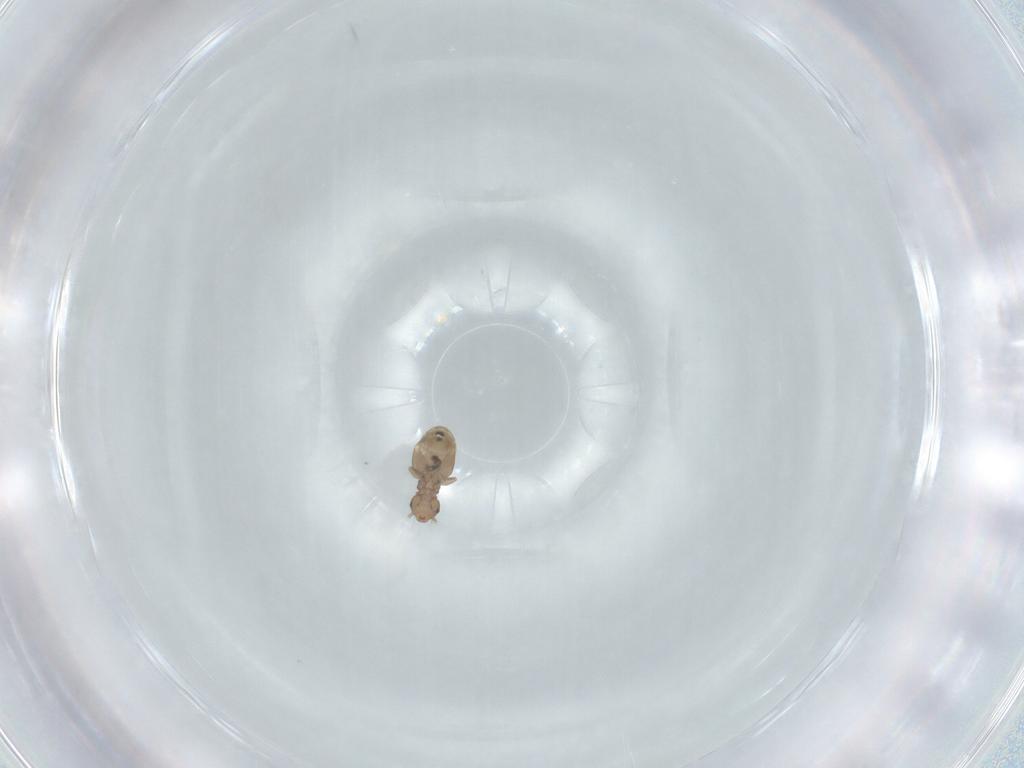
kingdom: Animalia
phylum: Arthropoda
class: Insecta
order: Psocodea
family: Liposcelididae
